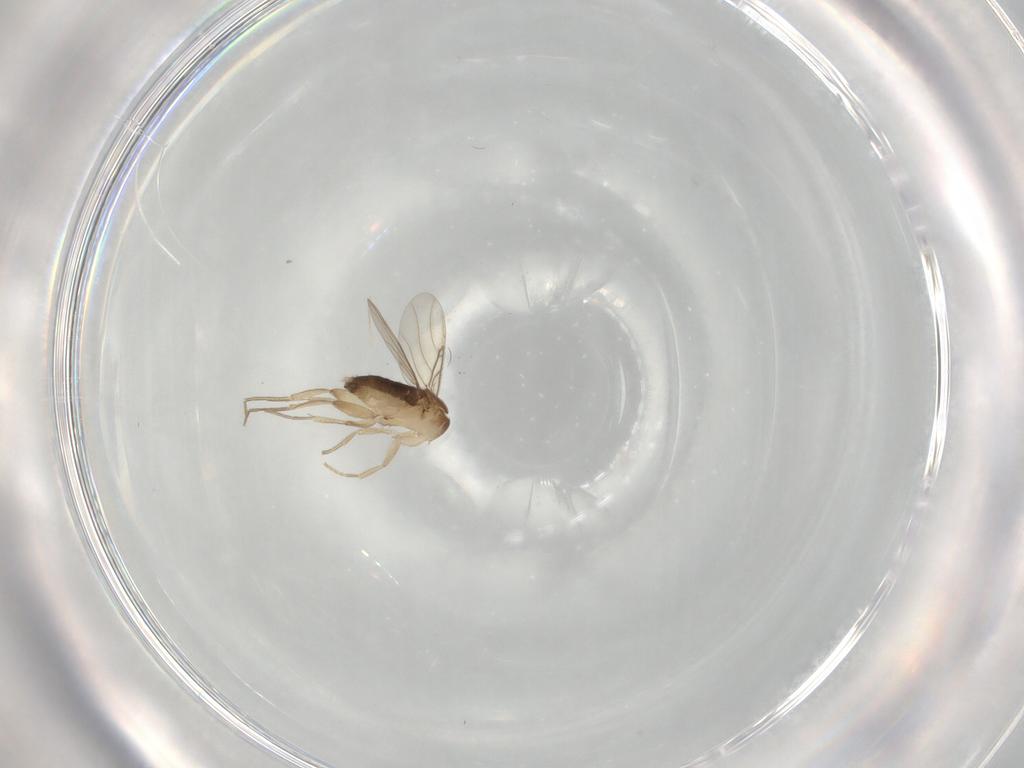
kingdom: Animalia
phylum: Arthropoda
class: Insecta
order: Diptera
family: Phoridae
